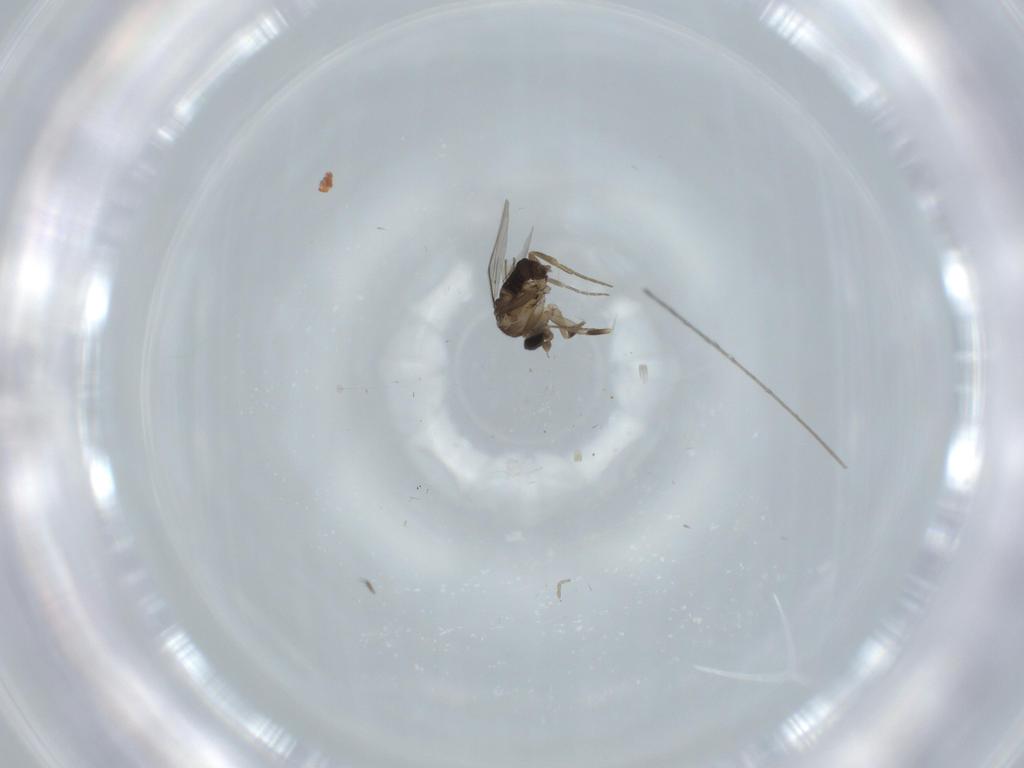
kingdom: Animalia
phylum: Arthropoda
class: Insecta
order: Diptera
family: Phoridae
